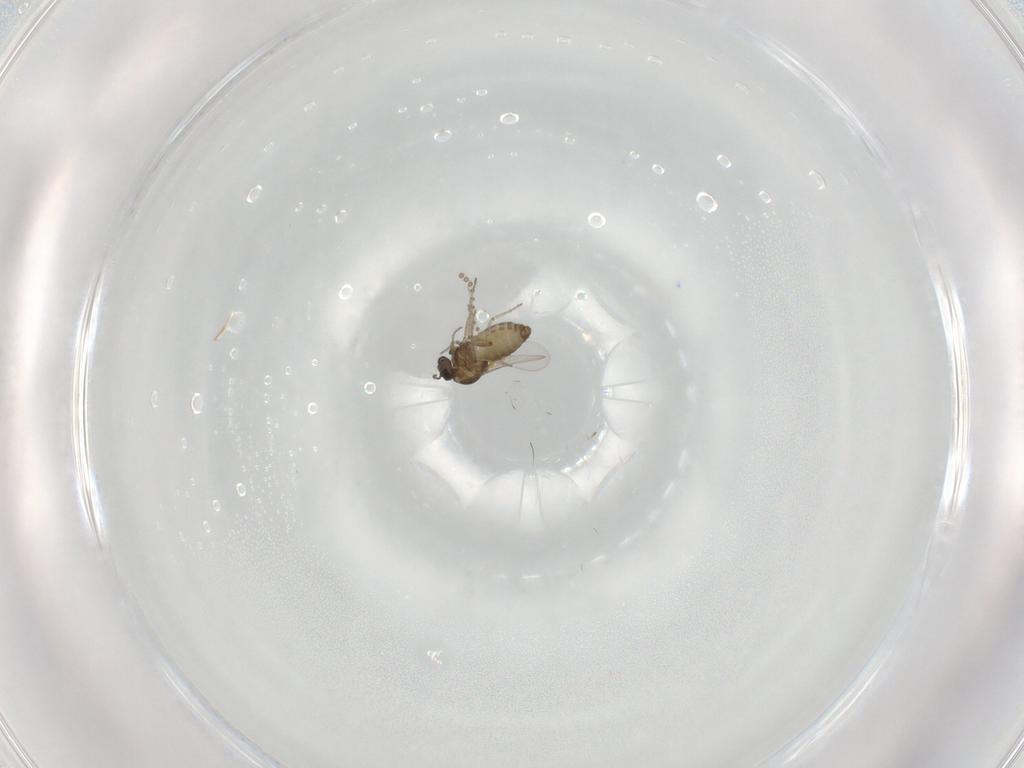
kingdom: Animalia
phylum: Arthropoda
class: Insecta
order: Diptera
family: Ceratopogonidae
